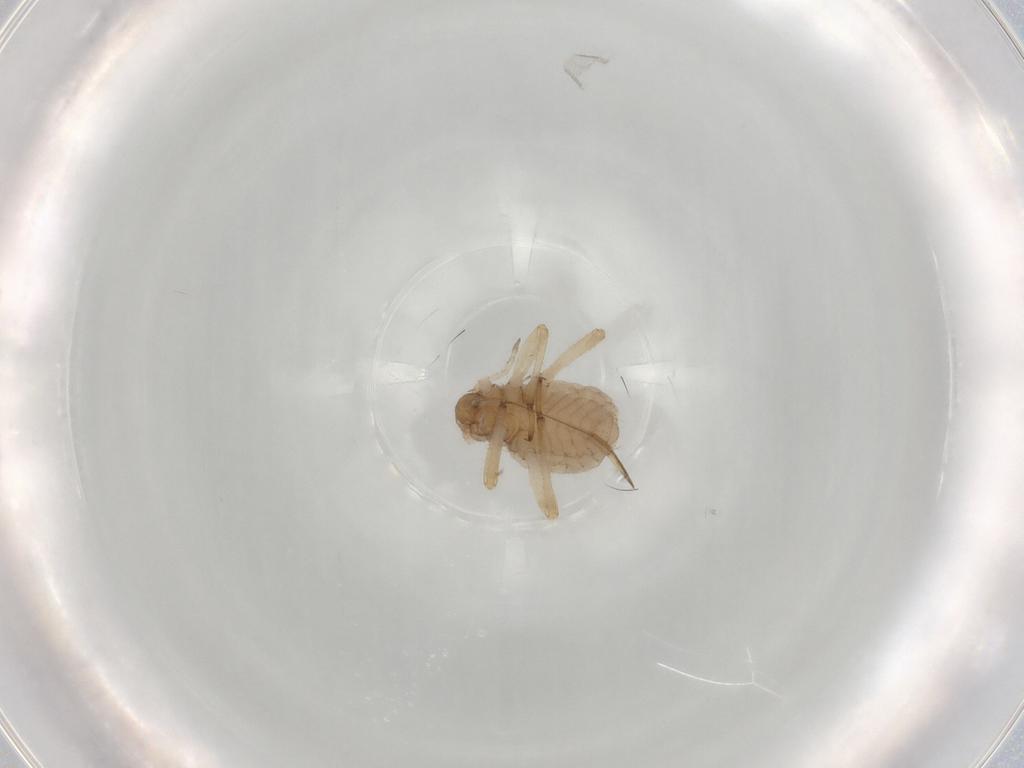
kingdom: Animalia
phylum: Arthropoda
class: Insecta
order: Hemiptera
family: Aphididae
